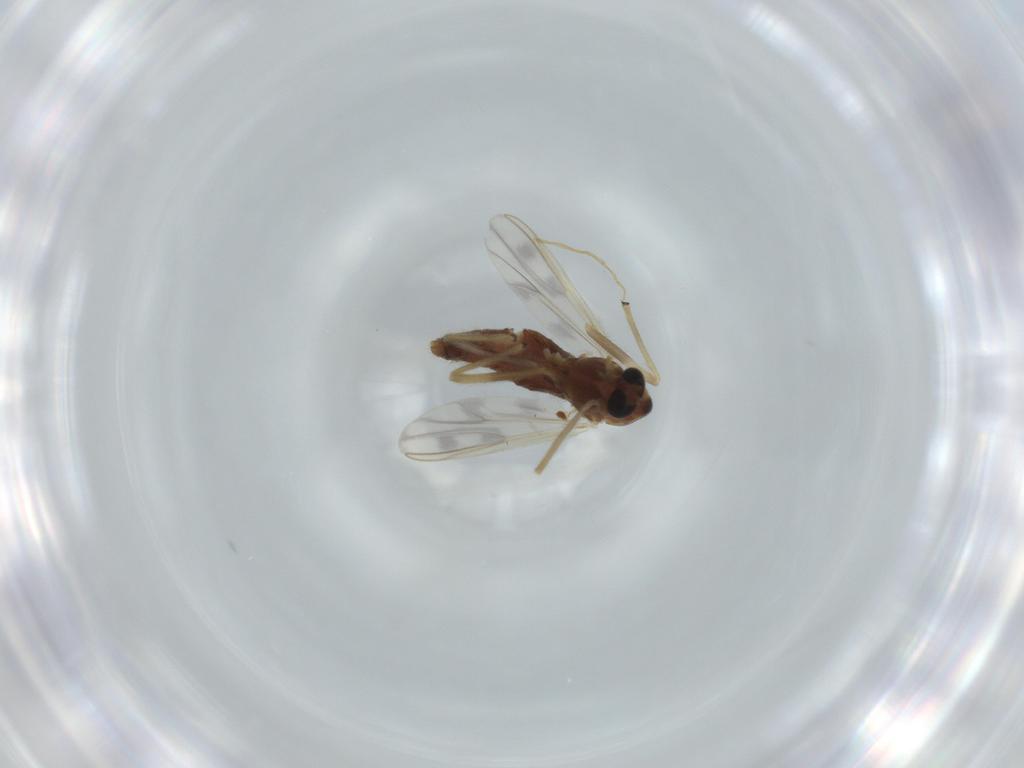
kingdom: Animalia
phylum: Arthropoda
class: Insecta
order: Diptera
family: Chironomidae
